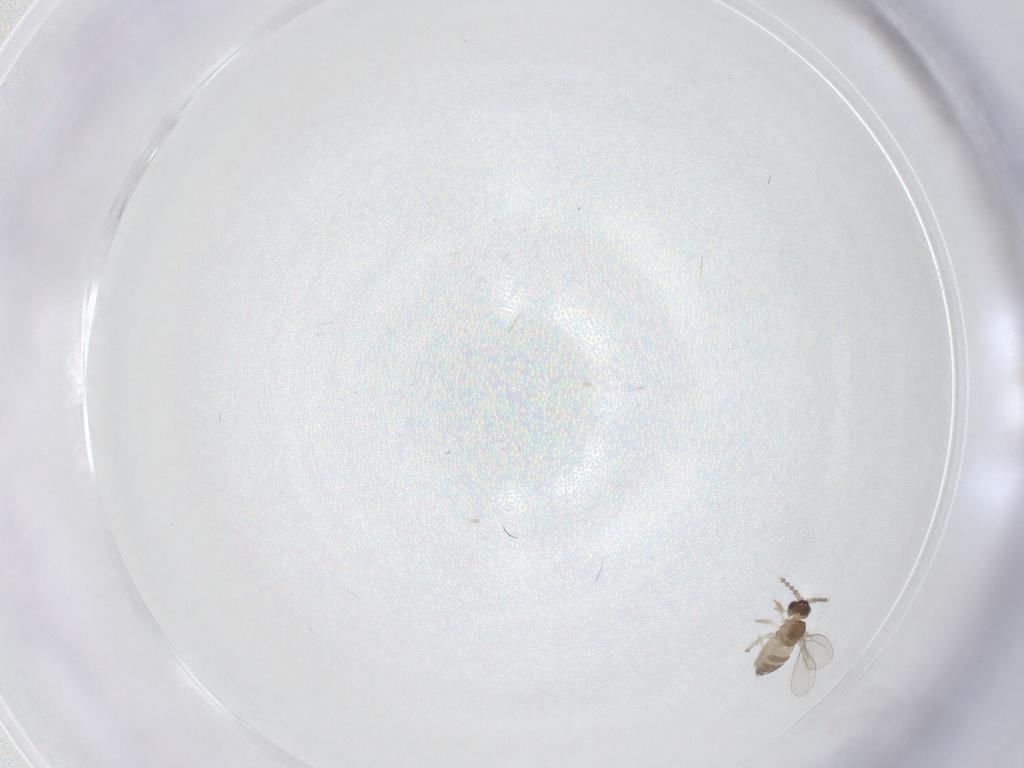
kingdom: Animalia
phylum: Arthropoda
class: Insecta
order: Diptera
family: Cecidomyiidae
